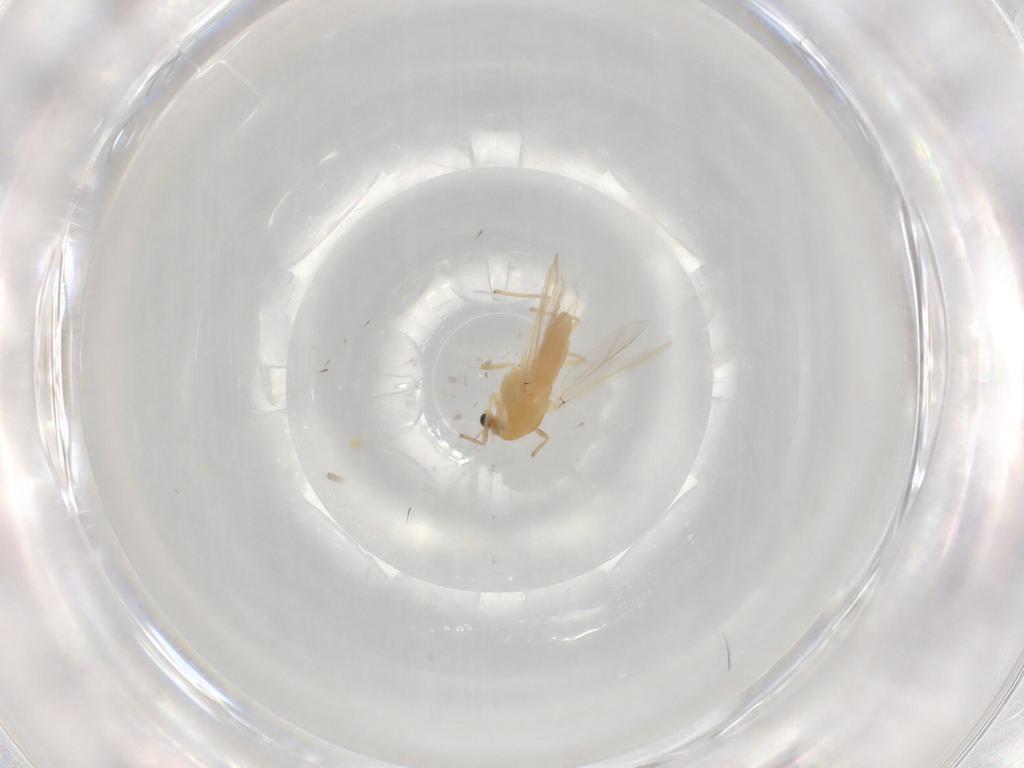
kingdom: Animalia
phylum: Arthropoda
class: Insecta
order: Diptera
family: Chironomidae
